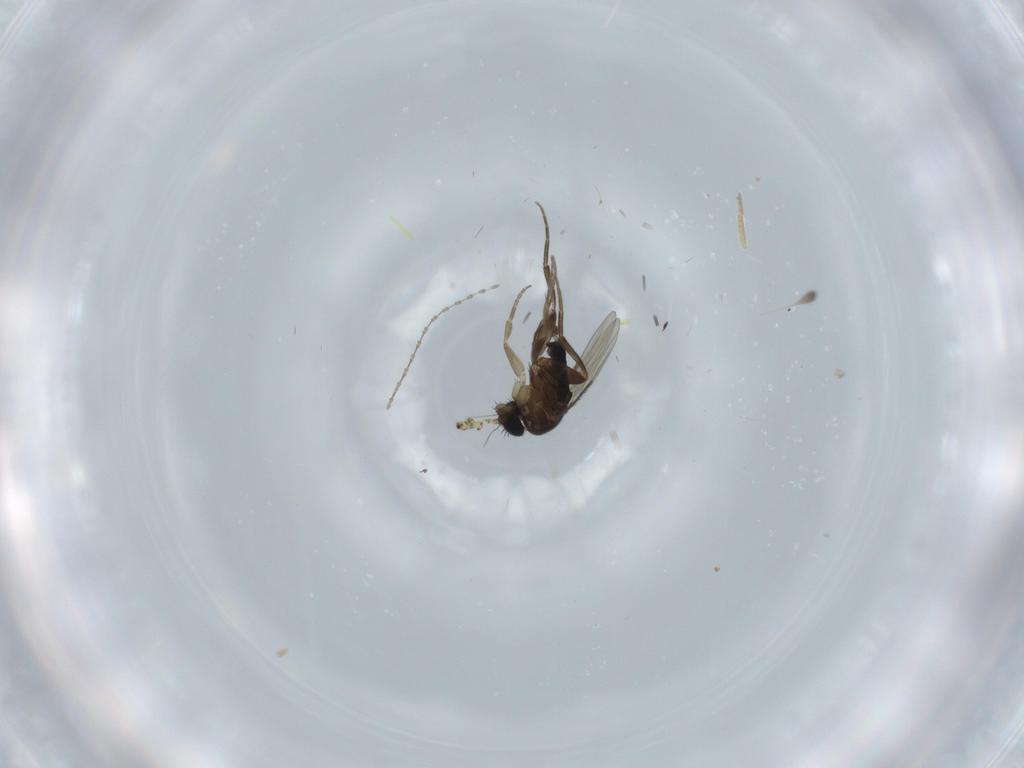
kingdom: Animalia
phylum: Arthropoda
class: Insecta
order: Diptera
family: Phoridae
